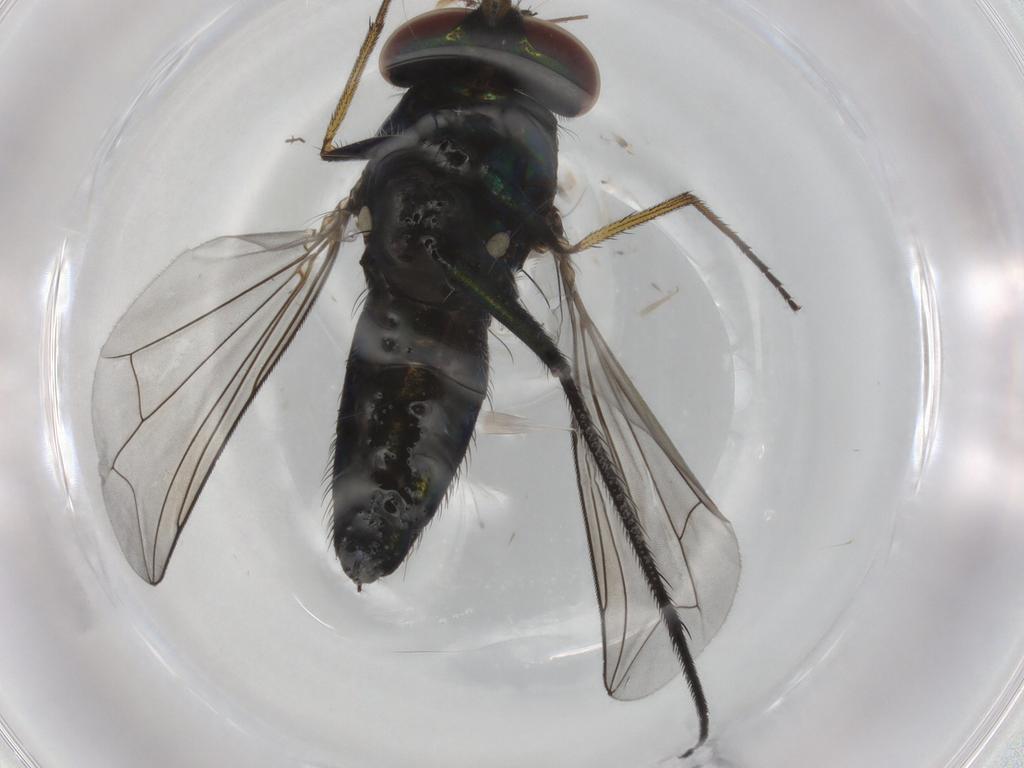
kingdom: Animalia
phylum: Arthropoda
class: Insecta
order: Diptera
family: Dolichopodidae
